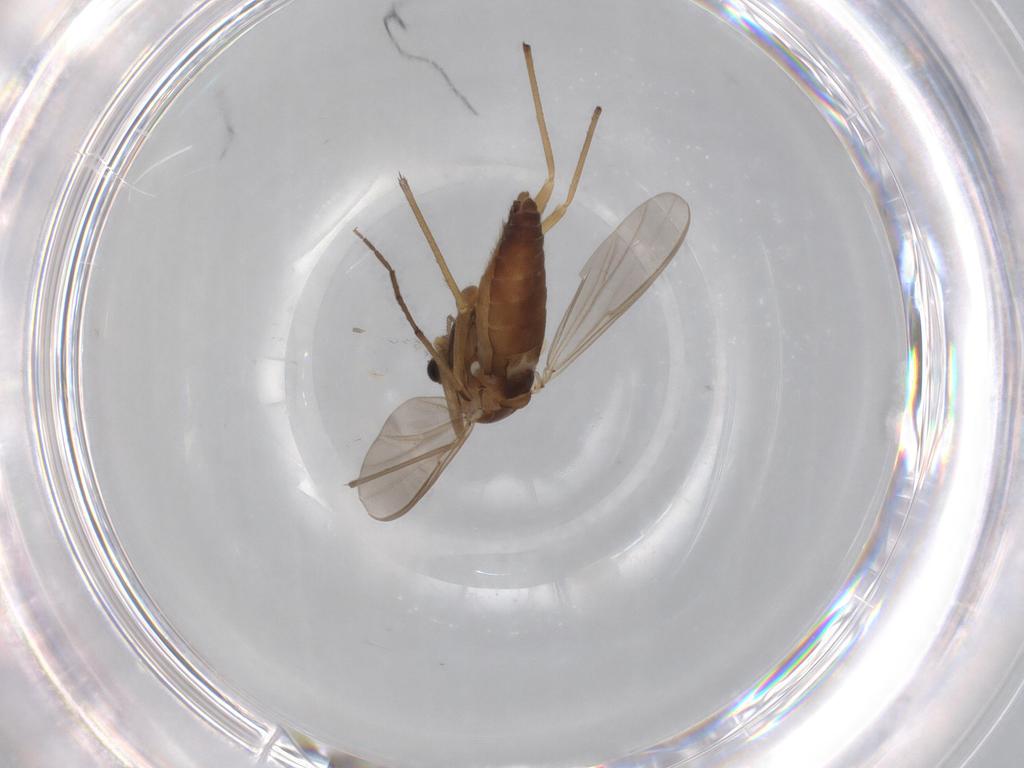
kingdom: Animalia
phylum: Arthropoda
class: Insecta
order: Diptera
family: Chironomidae
